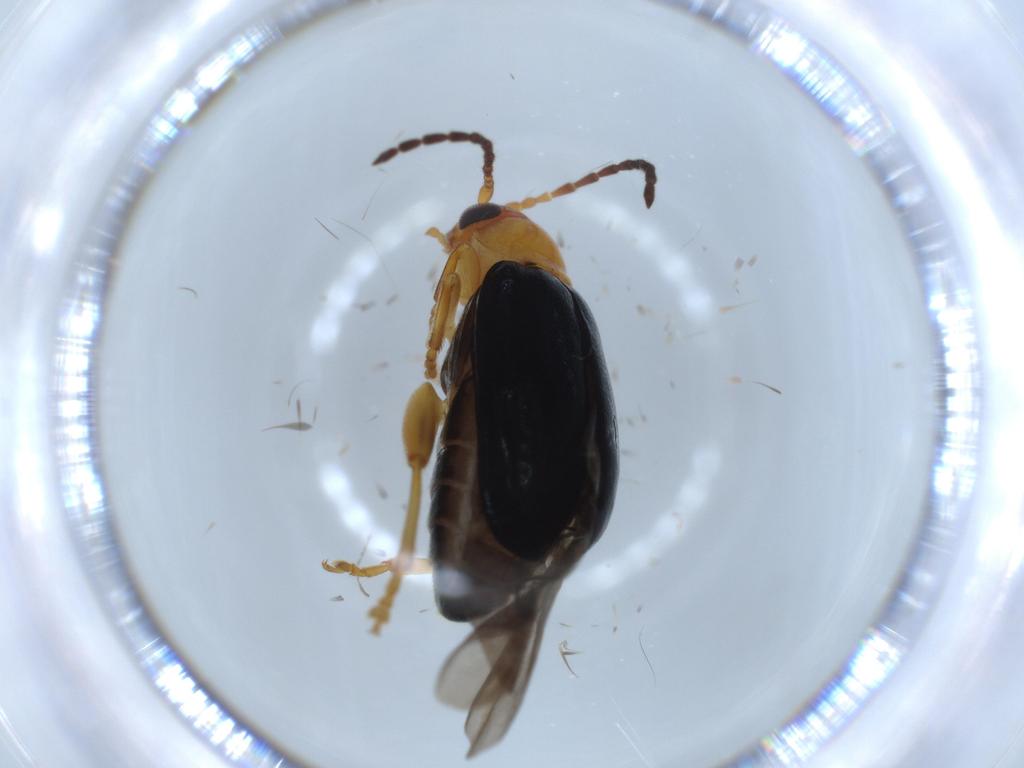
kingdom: Animalia
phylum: Arthropoda
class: Insecta
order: Coleoptera
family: Chrysomelidae
